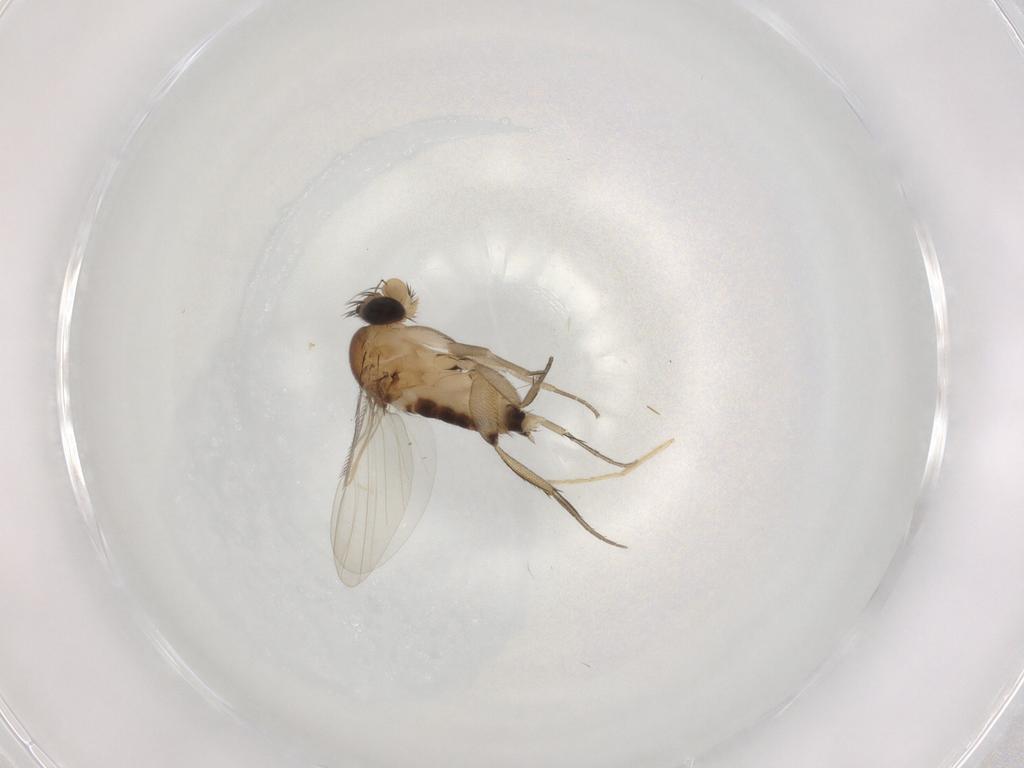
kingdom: Animalia
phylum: Arthropoda
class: Insecta
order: Diptera
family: Phoridae
